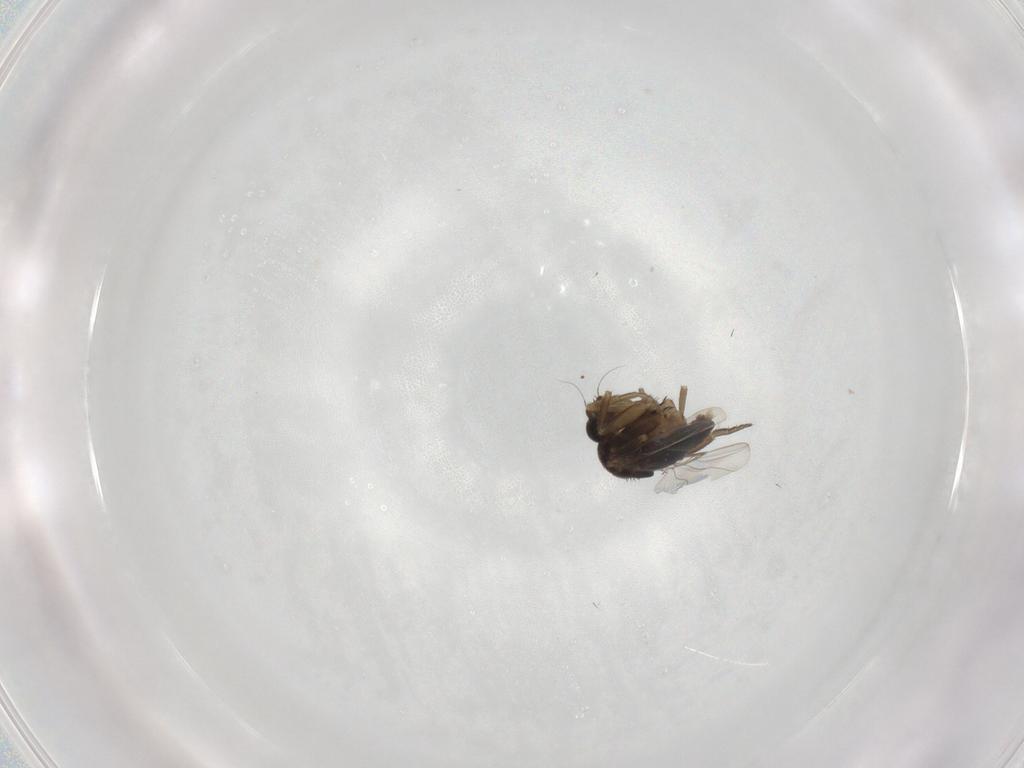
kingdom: Animalia
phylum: Arthropoda
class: Insecta
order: Diptera
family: Phoridae
